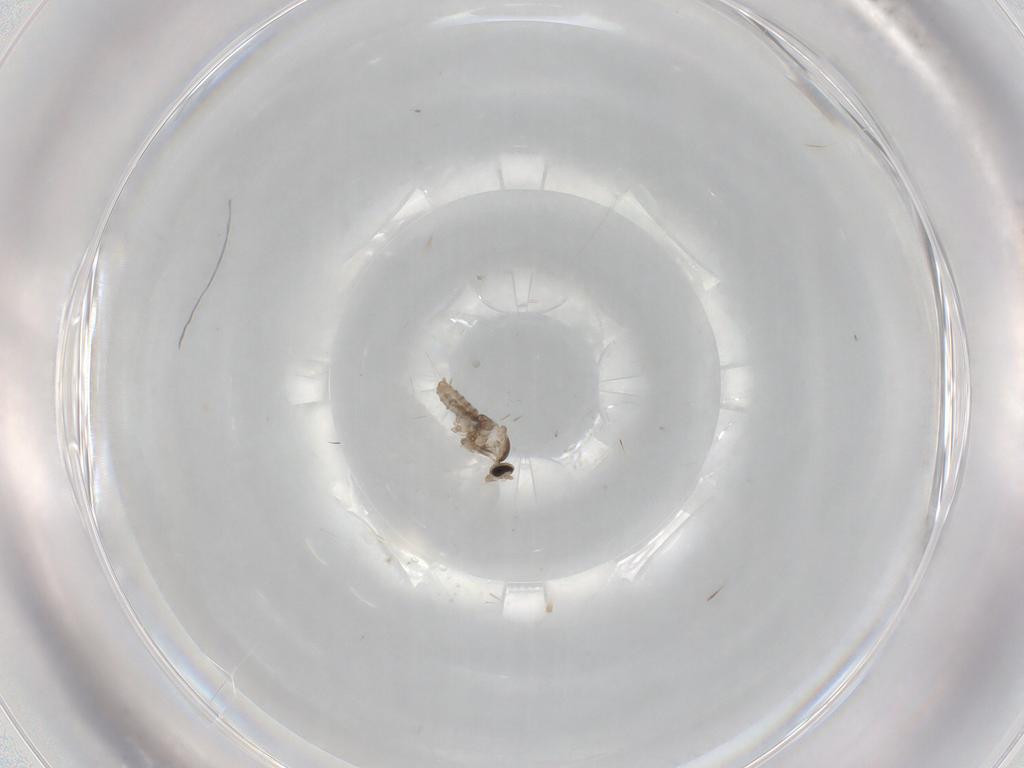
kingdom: Animalia
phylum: Arthropoda
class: Insecta
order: Diptera
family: Cecidomyiidae
